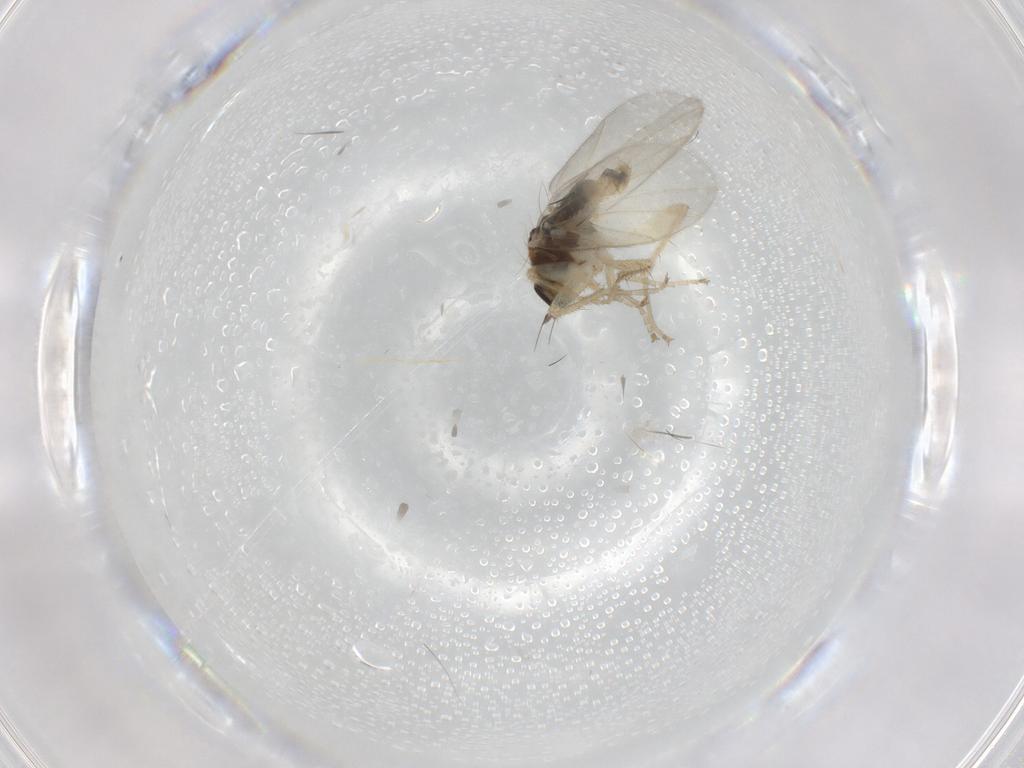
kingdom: Animalia
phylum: Arthropoda
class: Insecta
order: Diptera
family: Hybotidae
